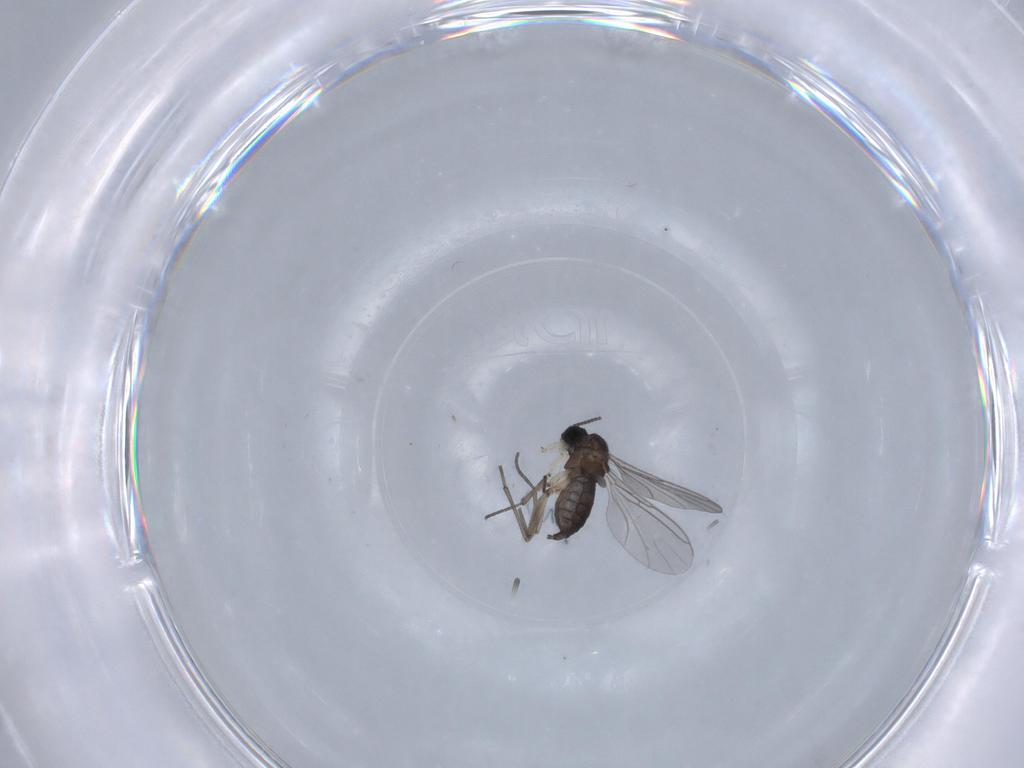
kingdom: Animalia
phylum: Arthropoda
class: Insecta
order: Diptera
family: Sciaridae
